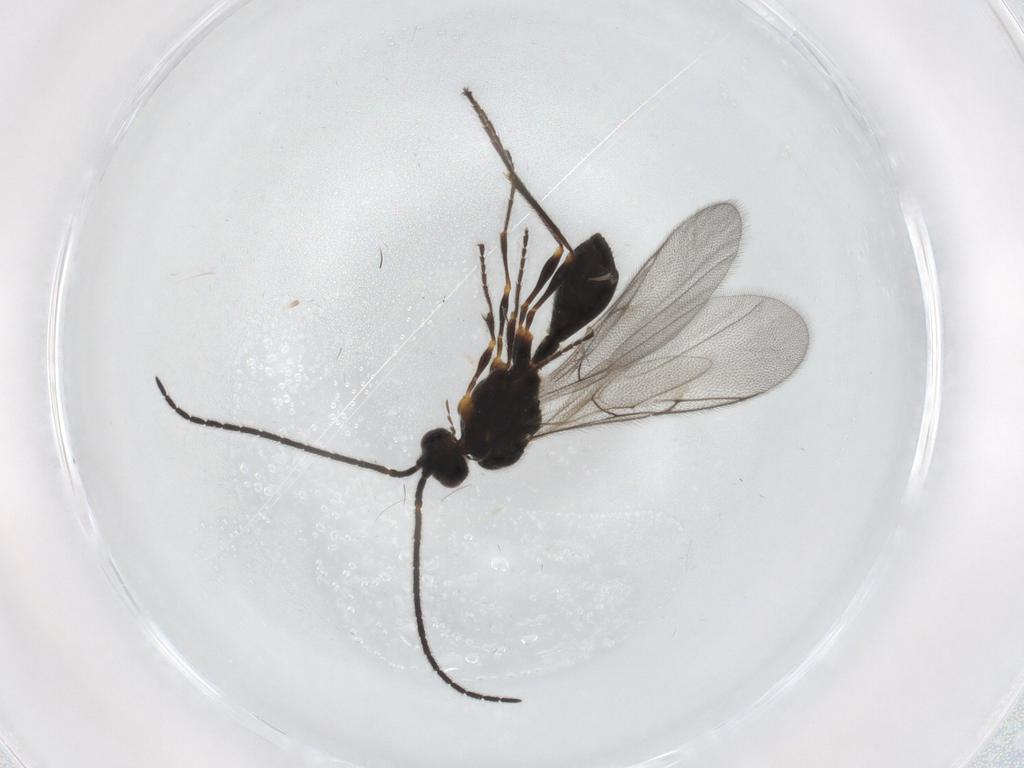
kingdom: Animalia
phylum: Arthropoda
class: Insecta
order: Hymenoptera
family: Diapriidae
